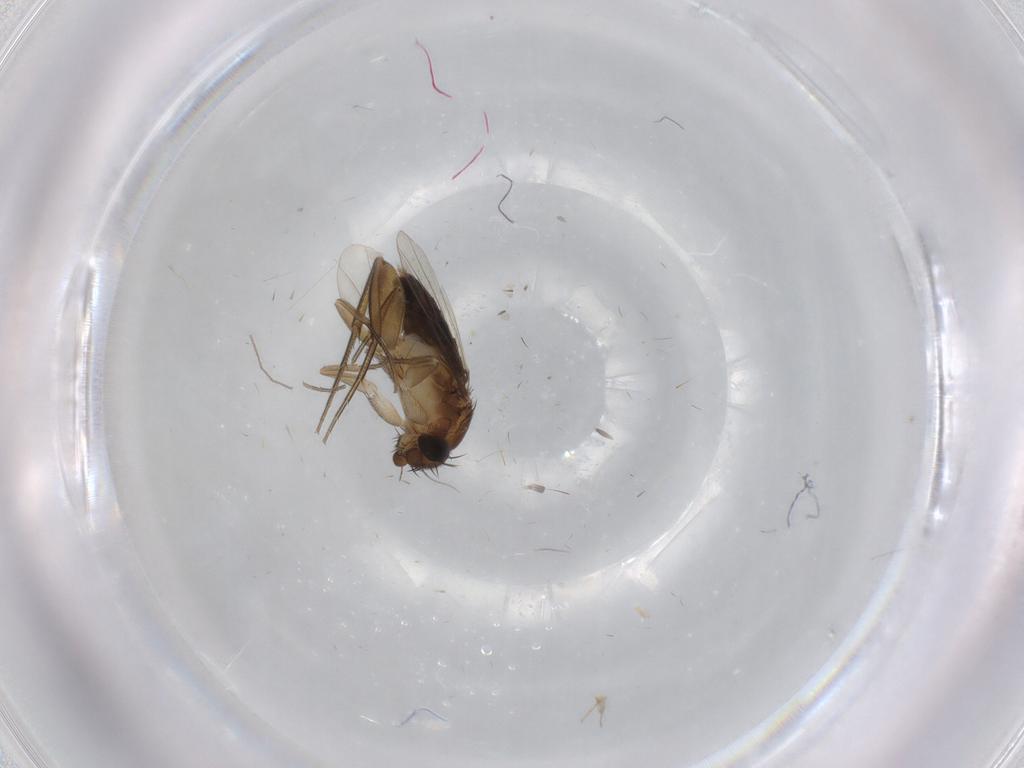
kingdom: Animalia
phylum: Arthropoda
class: Insecta
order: Diptera
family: Phoridae
